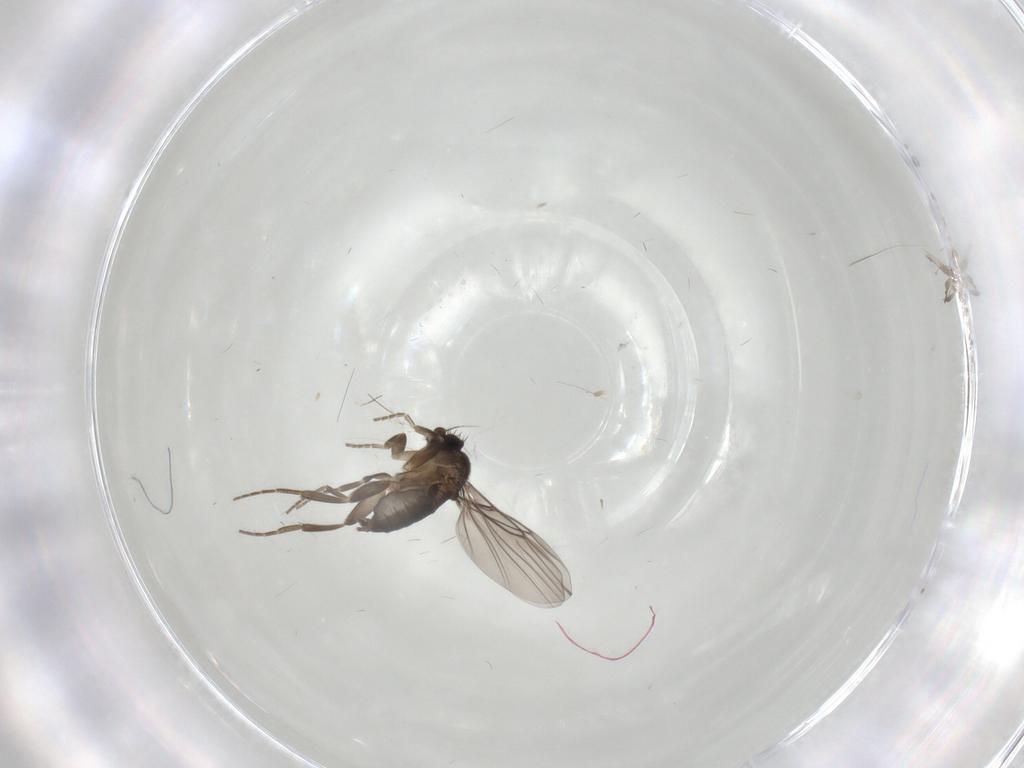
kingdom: Animalia
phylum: Arthropoda
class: Insecta
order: Diptera
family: Phoridae
